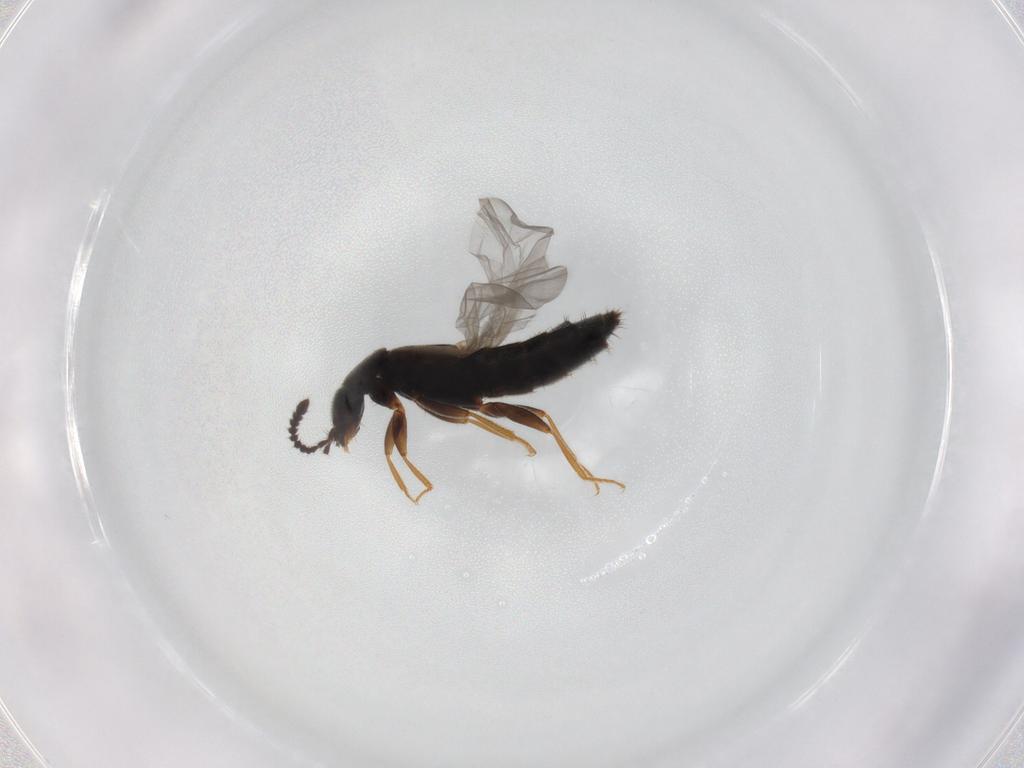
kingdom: Animalia
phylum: Arthropoda
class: Insecta
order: Coleoptera
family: Staphylinidae
